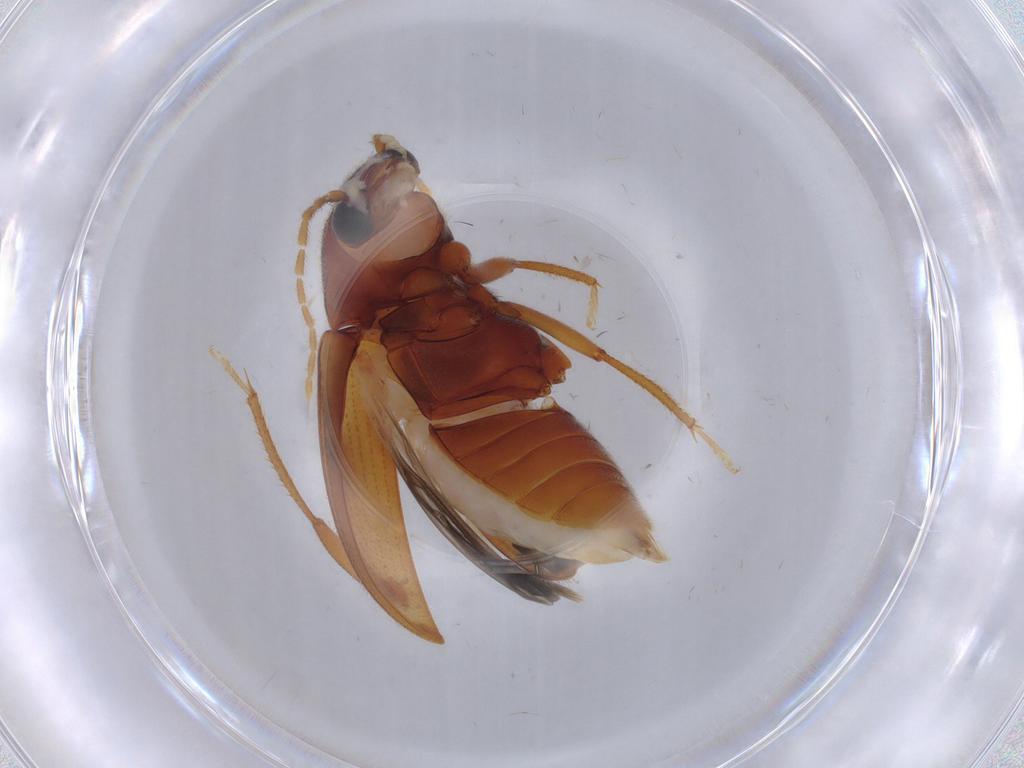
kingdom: Animalia
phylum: Arthropoda
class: Insecta
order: Coleoptera
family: Ptilodactylidae
